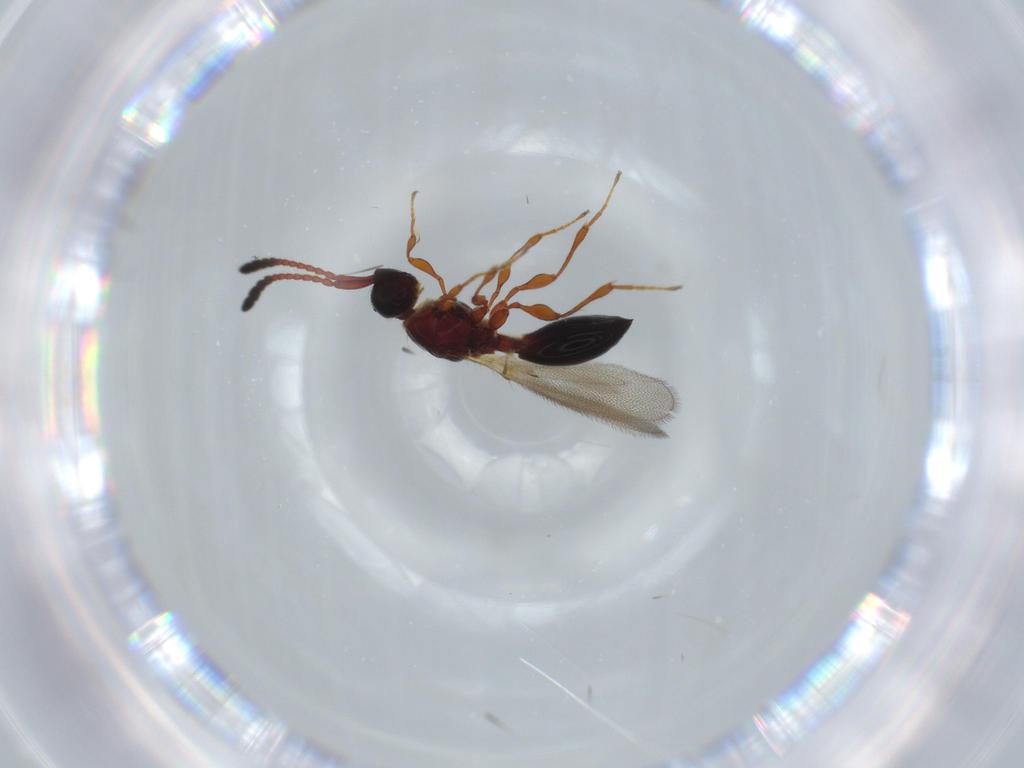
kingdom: Animalia
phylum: Arthropoda
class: Insecta
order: Hymenoptera
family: Diapriidae
